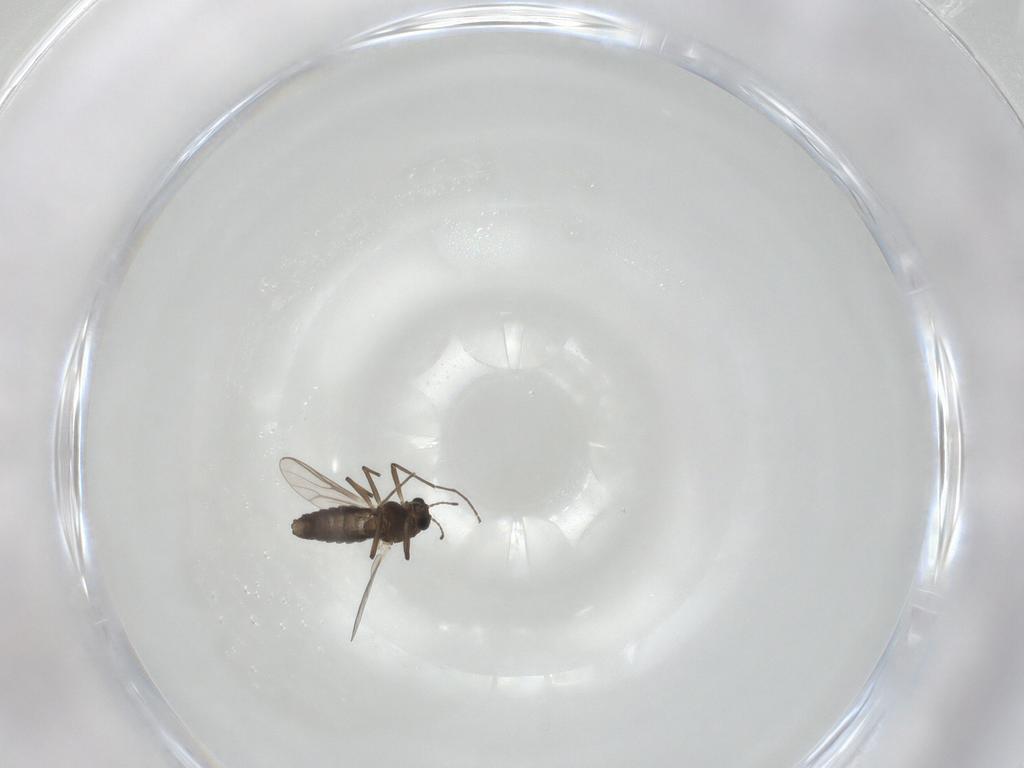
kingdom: Animalia
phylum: Arthropoda
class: Insecta
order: Diptera
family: Chironomidae
